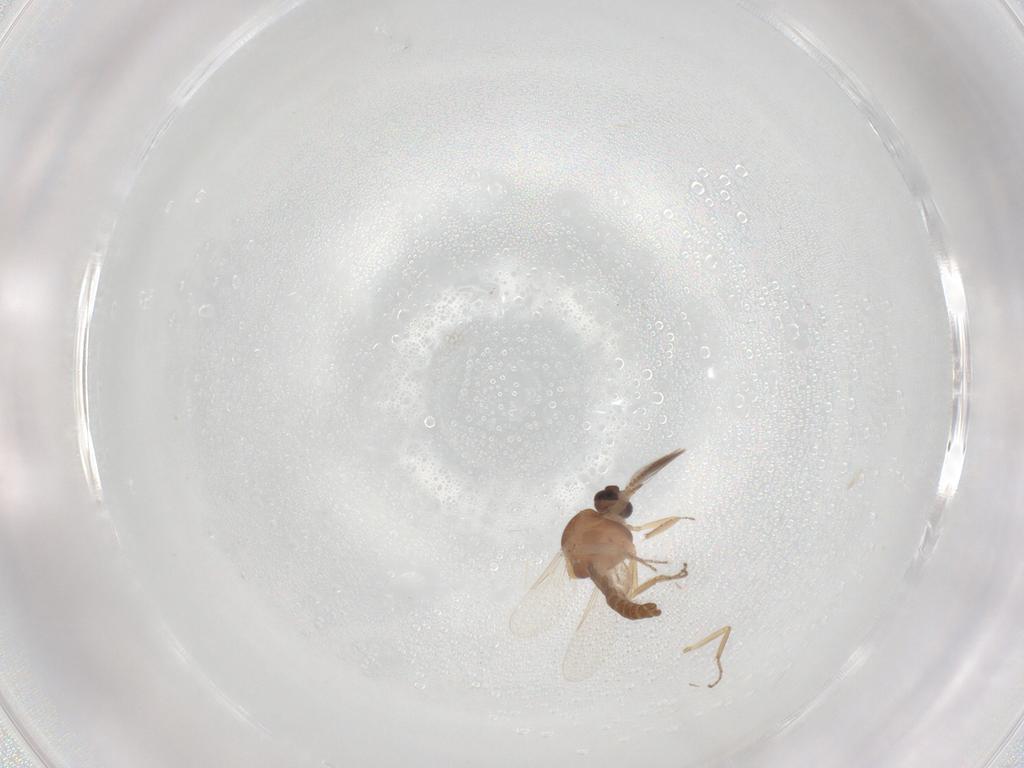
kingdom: Animalia
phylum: Arthropoda
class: Insecta
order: Diptera
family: Ceratopogonidae
